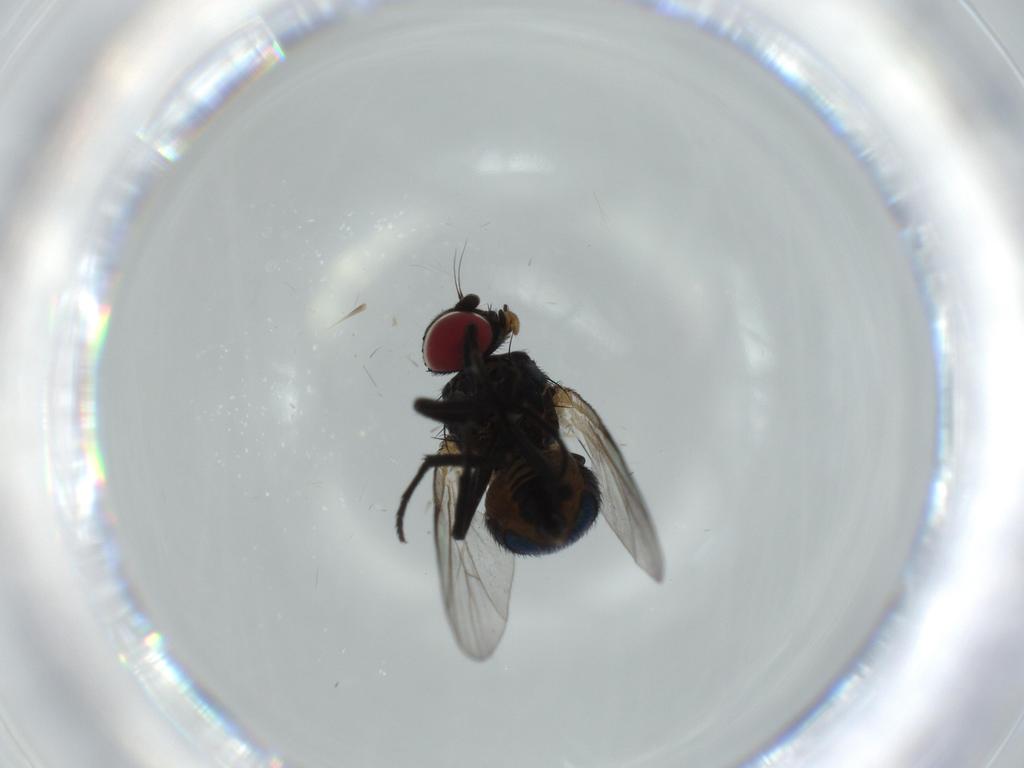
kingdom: Animalia
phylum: Arthropoda
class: Insecta
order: Diptera
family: Agromyzidae
